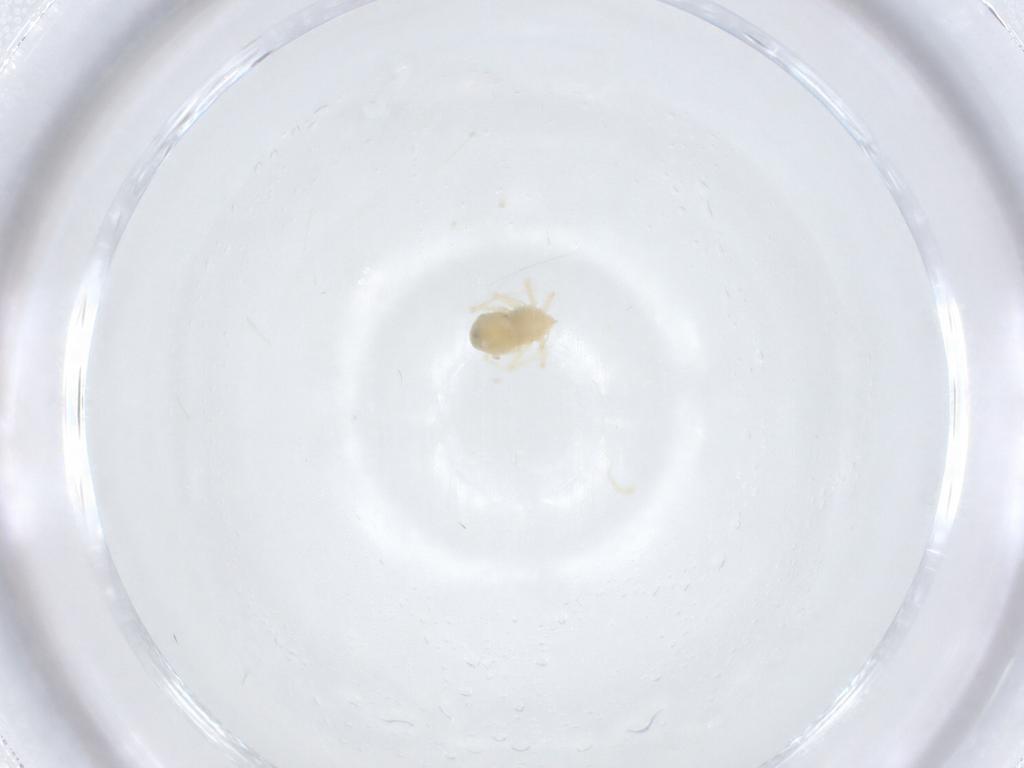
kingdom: Animalia
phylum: Arthropoda
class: Arachnida
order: Trombidiformes
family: Anystidae
